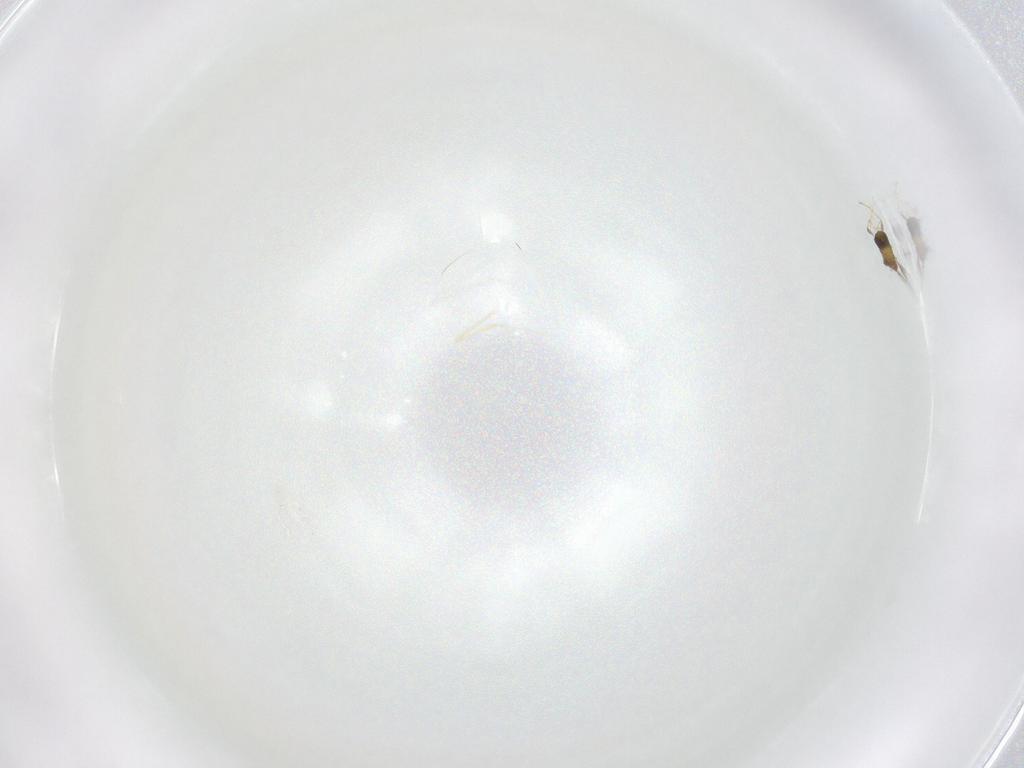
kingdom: Animalia
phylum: Arthropoda
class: Insecta
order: Hymenoptera
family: Trichogrammatidae
